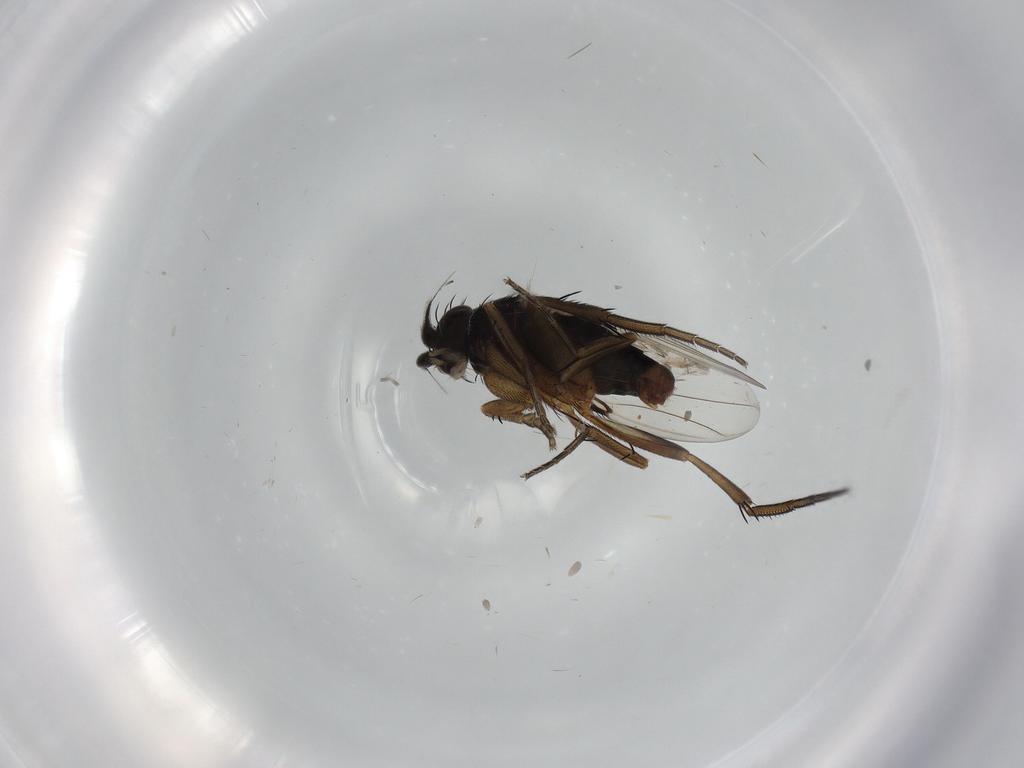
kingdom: Animalia
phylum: Arthropoda
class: Insecta
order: Diptera
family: Phoridae
